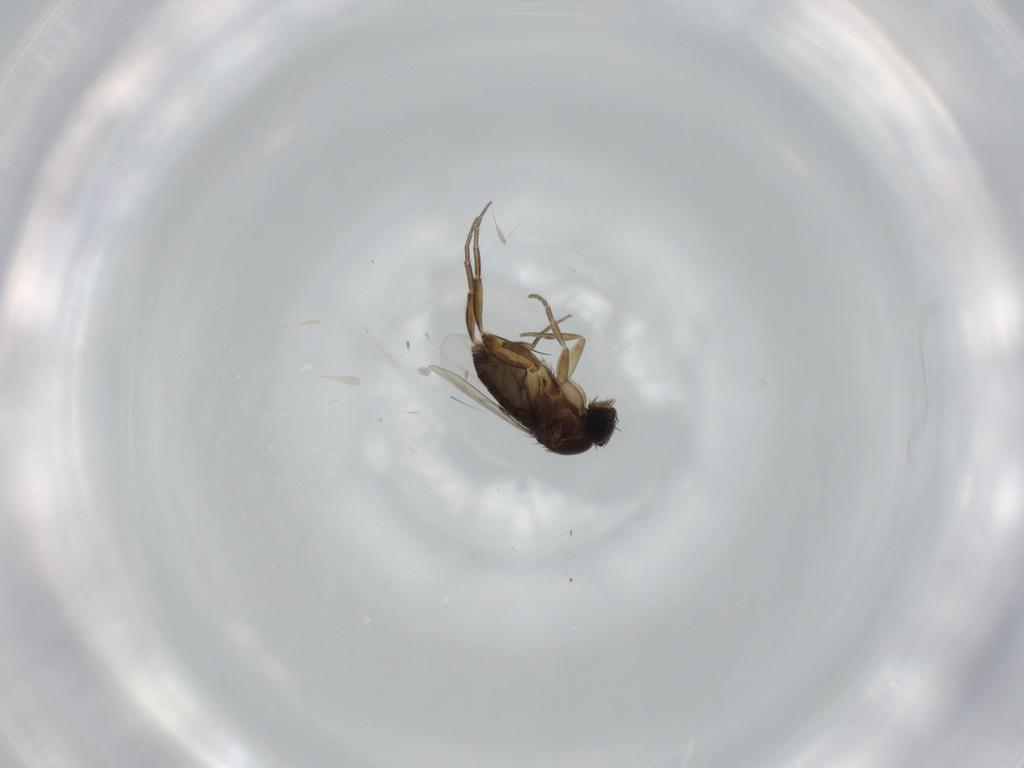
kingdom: Animalia
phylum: Arthropoda
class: Insecta
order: Diptera
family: Phoridae
